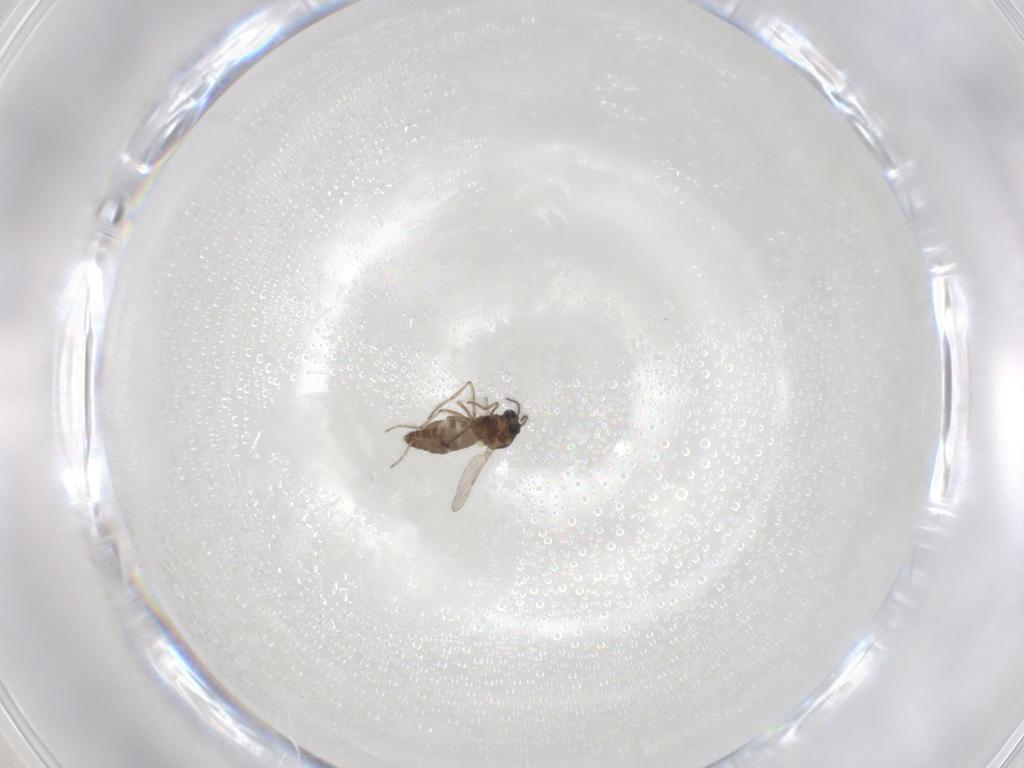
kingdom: Animalia
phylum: Arthropoda
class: Insecta
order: Diptera
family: Ceratopogonidae
